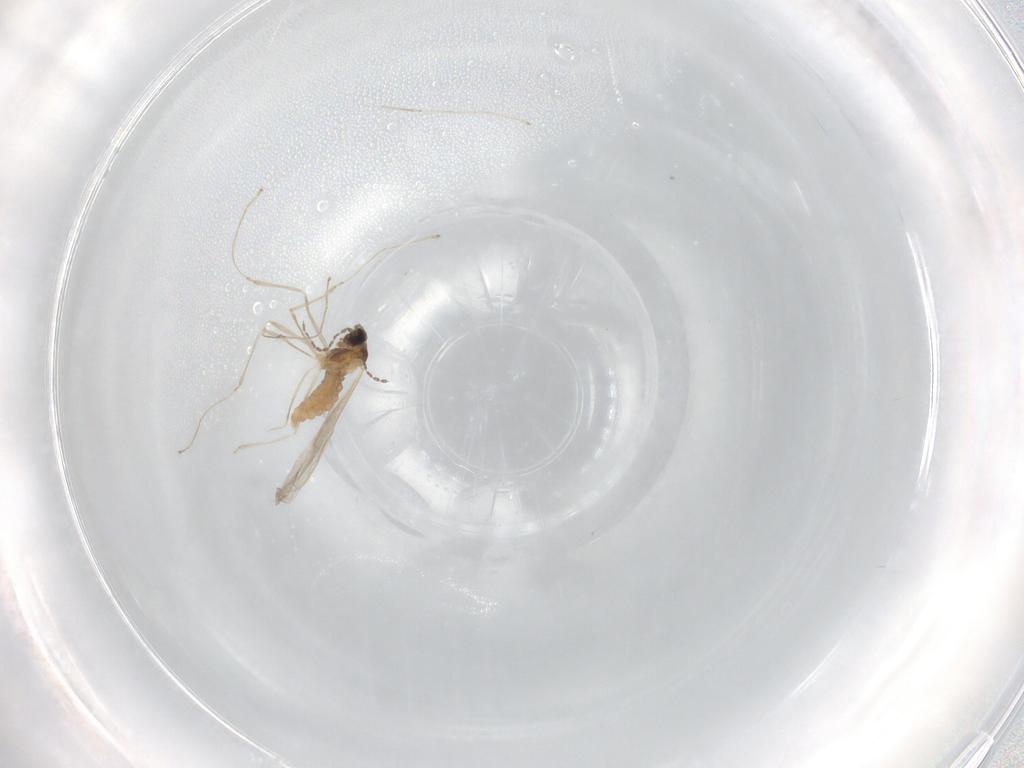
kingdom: Animalia
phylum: Arthropoda
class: Insecta
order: Diptera
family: Cecidomyiidae
